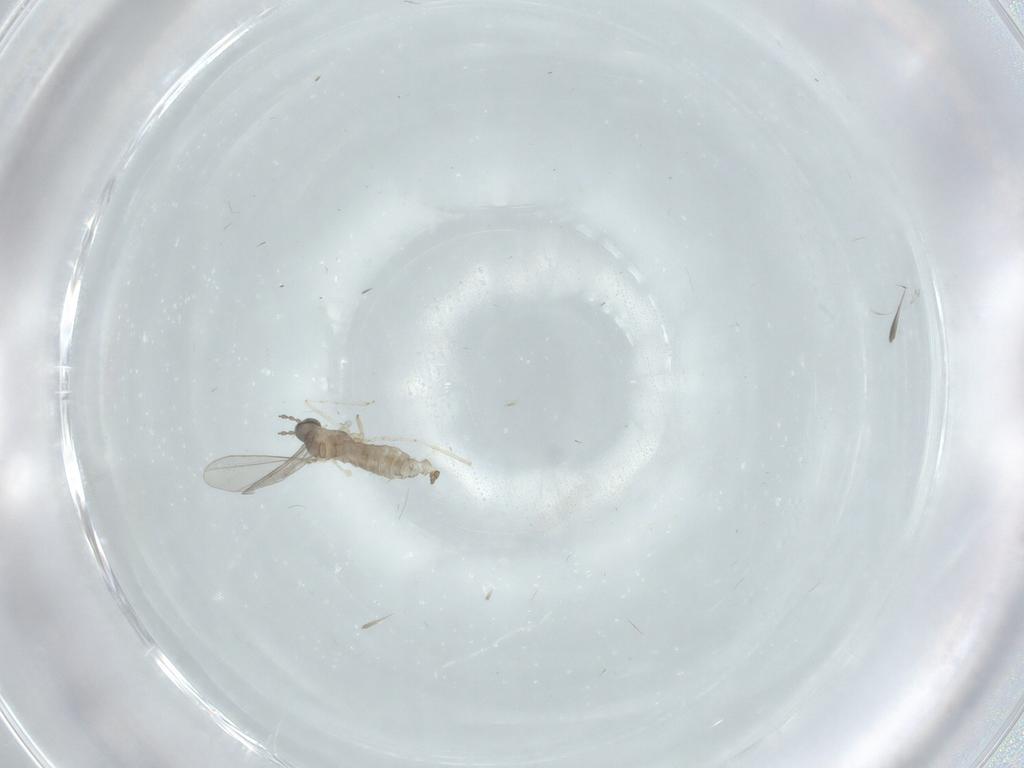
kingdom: Animalia
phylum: Arthropoda
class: Insecta
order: Diptera
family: Cecidomyiidae
